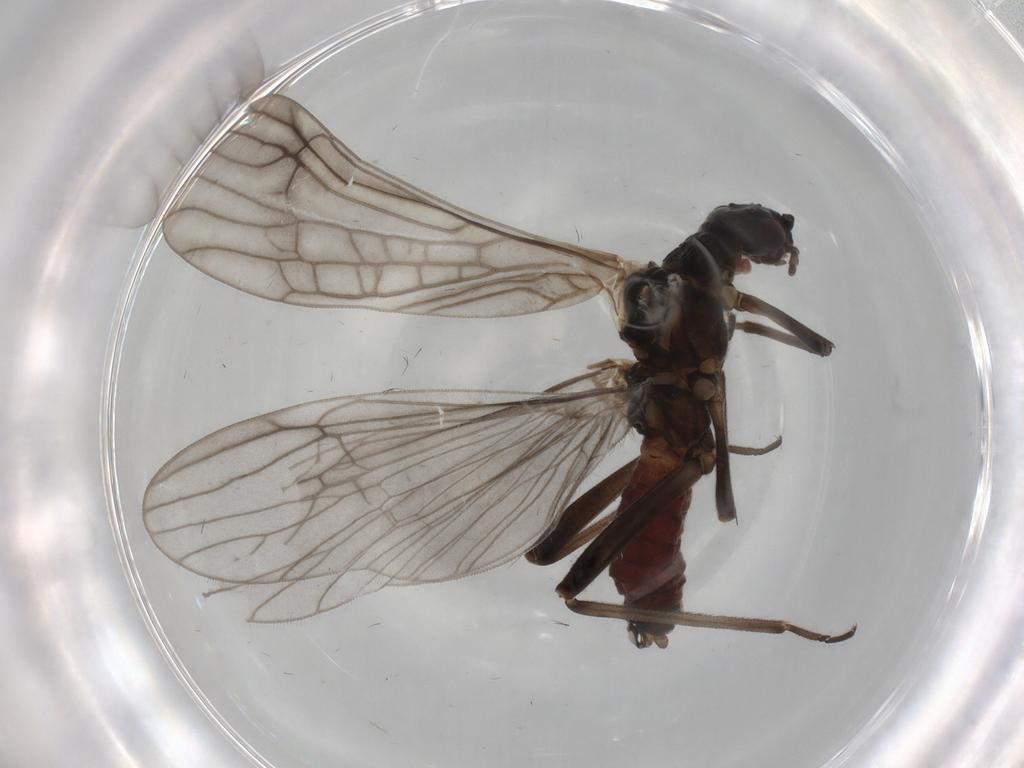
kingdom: Animalia
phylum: Arthropoda
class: Insecta
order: Plecoptera
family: Nemouridae
